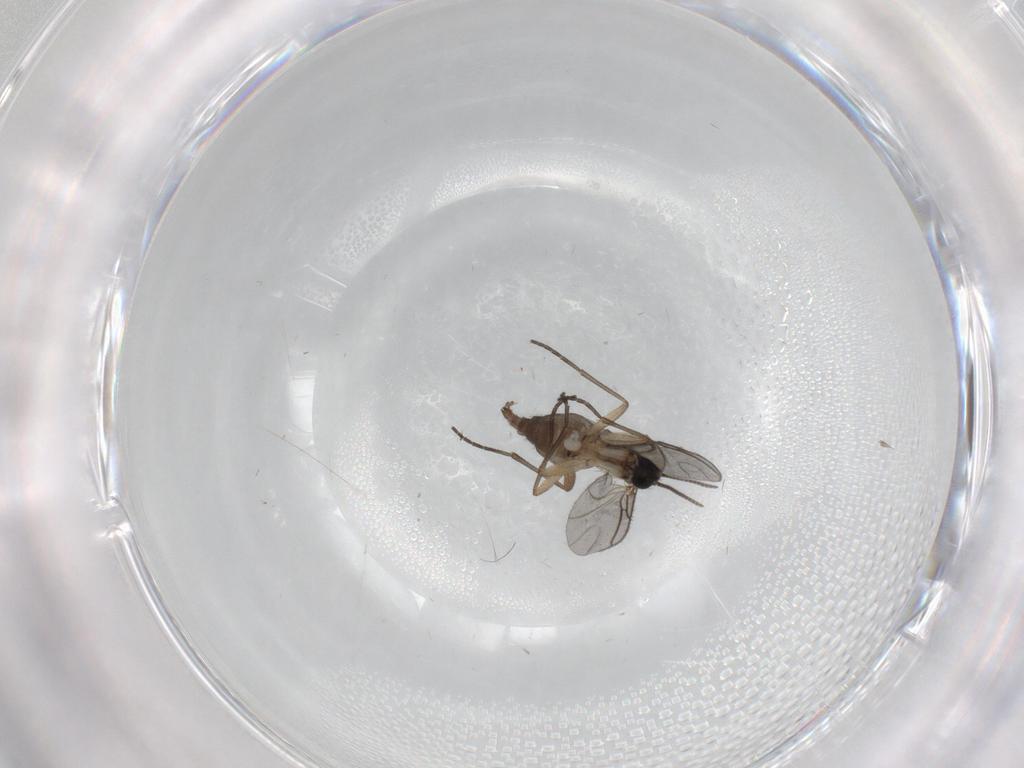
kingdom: Animalia
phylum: Arthropoda
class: Insecta
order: Diptera
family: Sciaridae
